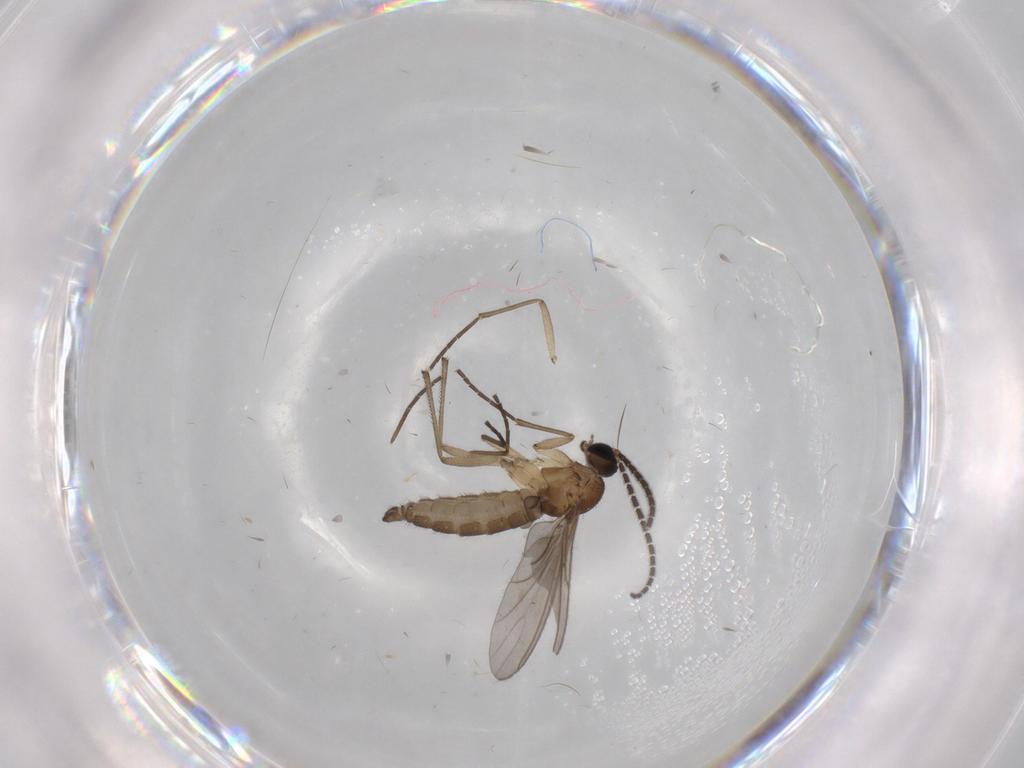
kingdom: Animalia
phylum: Arthropoda
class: Insecta
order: Diptera
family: Sciaridae
